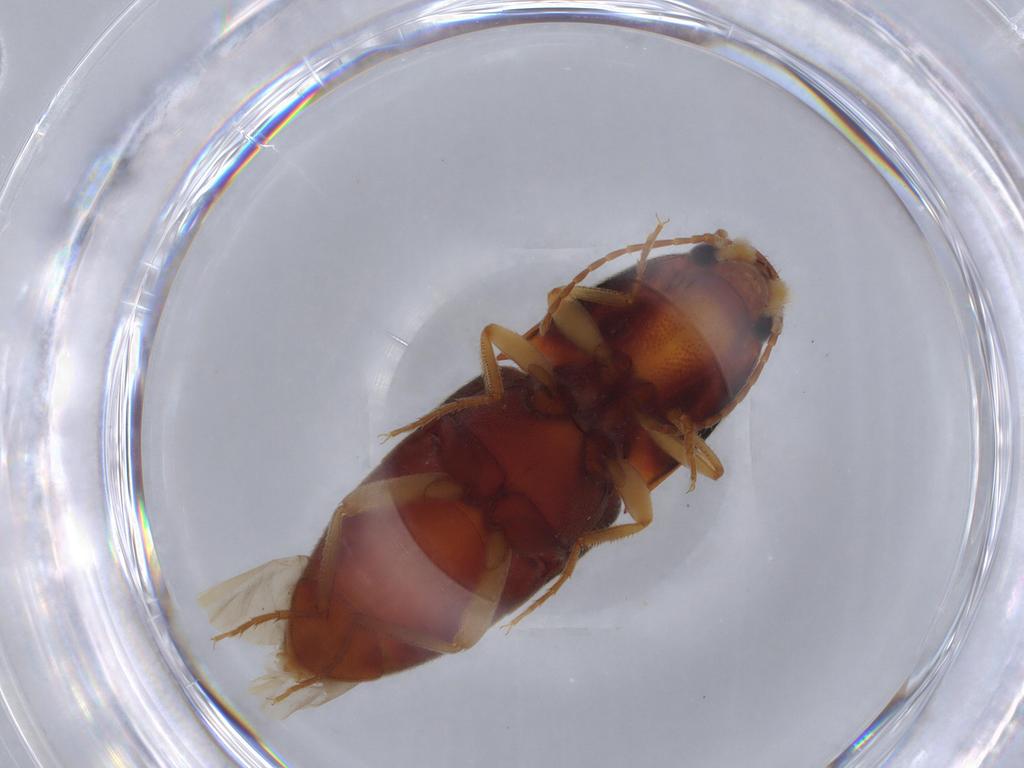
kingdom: Animalia
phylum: Arthropoda
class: Insecta
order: Coleoptera
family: Elateridae
